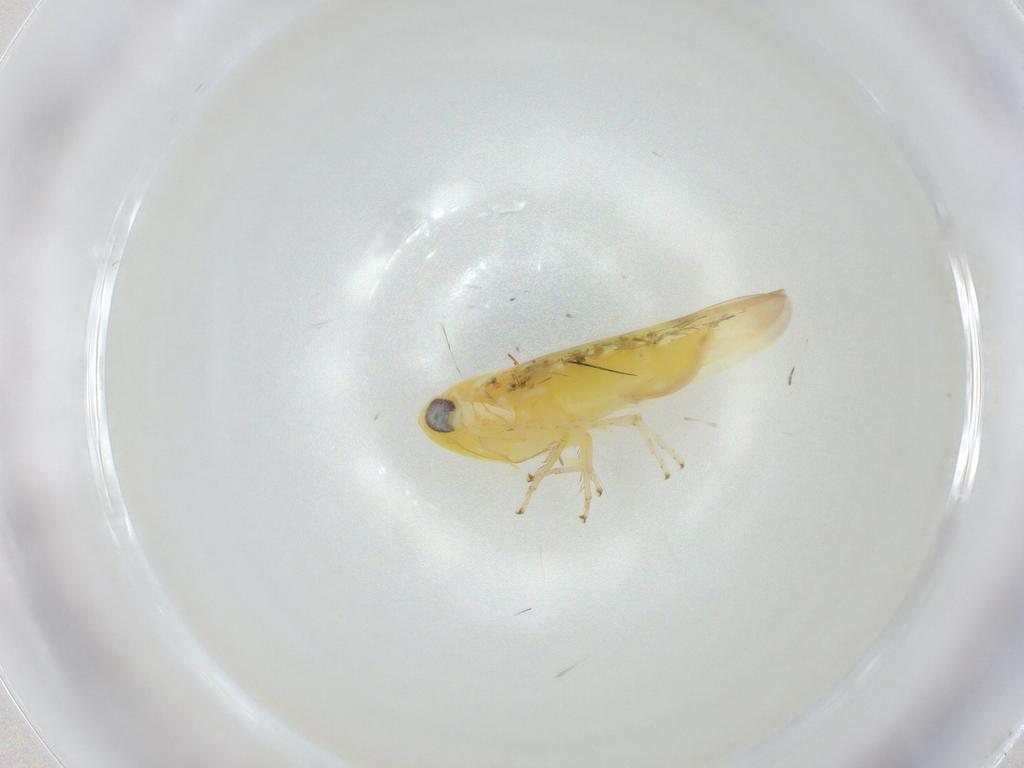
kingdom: Animalia
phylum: Arthropoda
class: Insecta
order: Hemiptera
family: Cicadellidae
